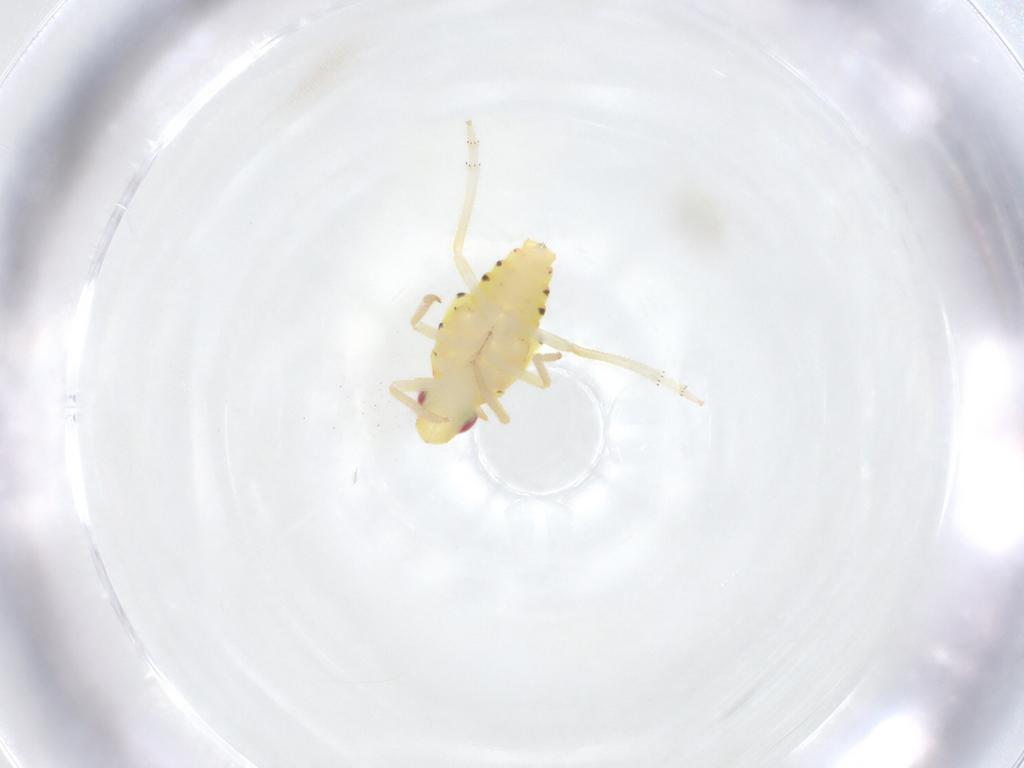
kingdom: Animalia
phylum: Arthropoda
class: Insecta
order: Hemiptera
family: Tropiduchidae
